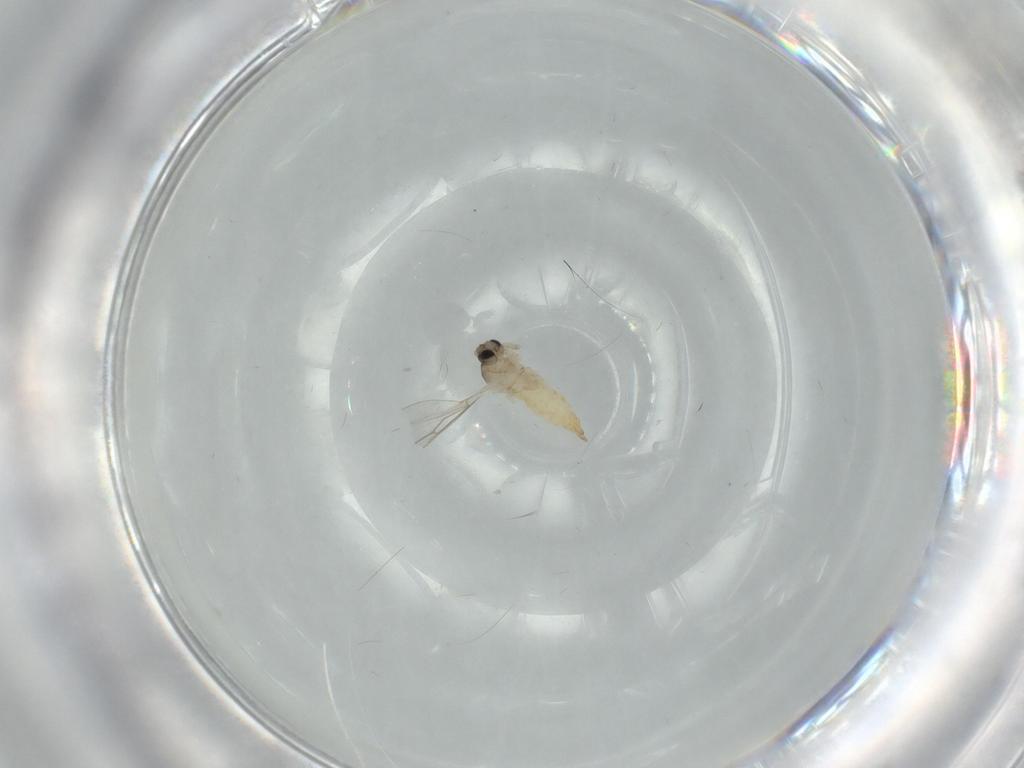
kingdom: Animalia
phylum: Arthropoda
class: Insecta
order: Diptera
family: Cecidomyiidae
